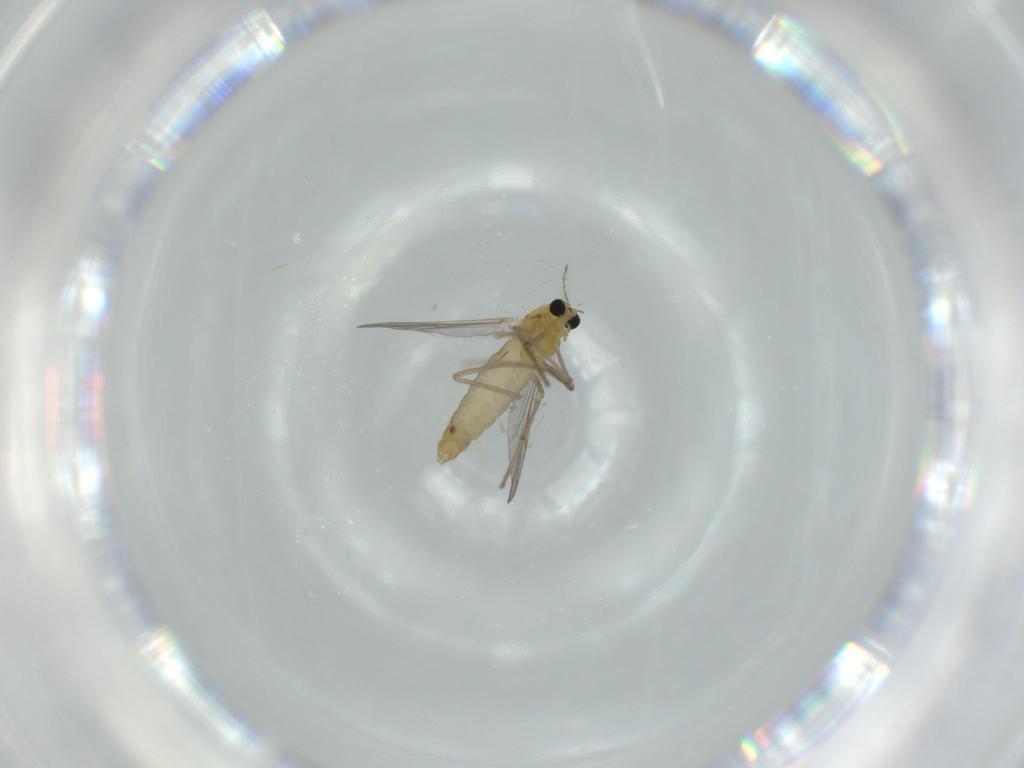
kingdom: Animalia
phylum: Arthropoda
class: Insecta
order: Diptera
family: Chironomidae
